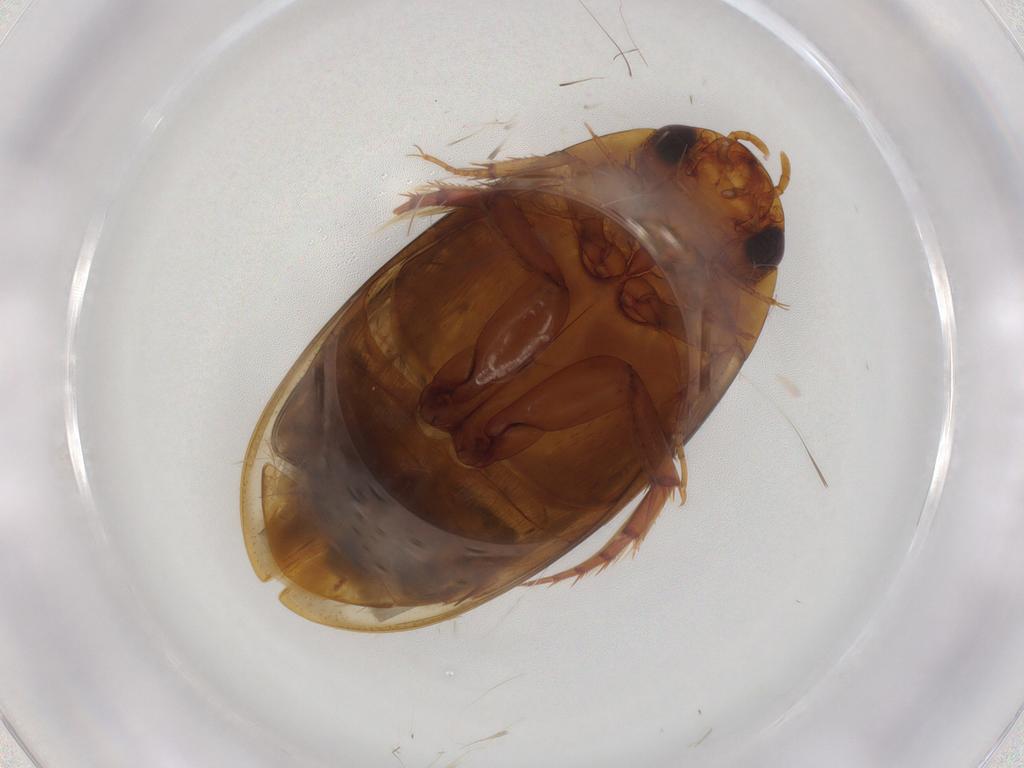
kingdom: Animalia
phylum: Arthropoda
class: Insecta
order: Coleoptera
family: Dytiscidae
